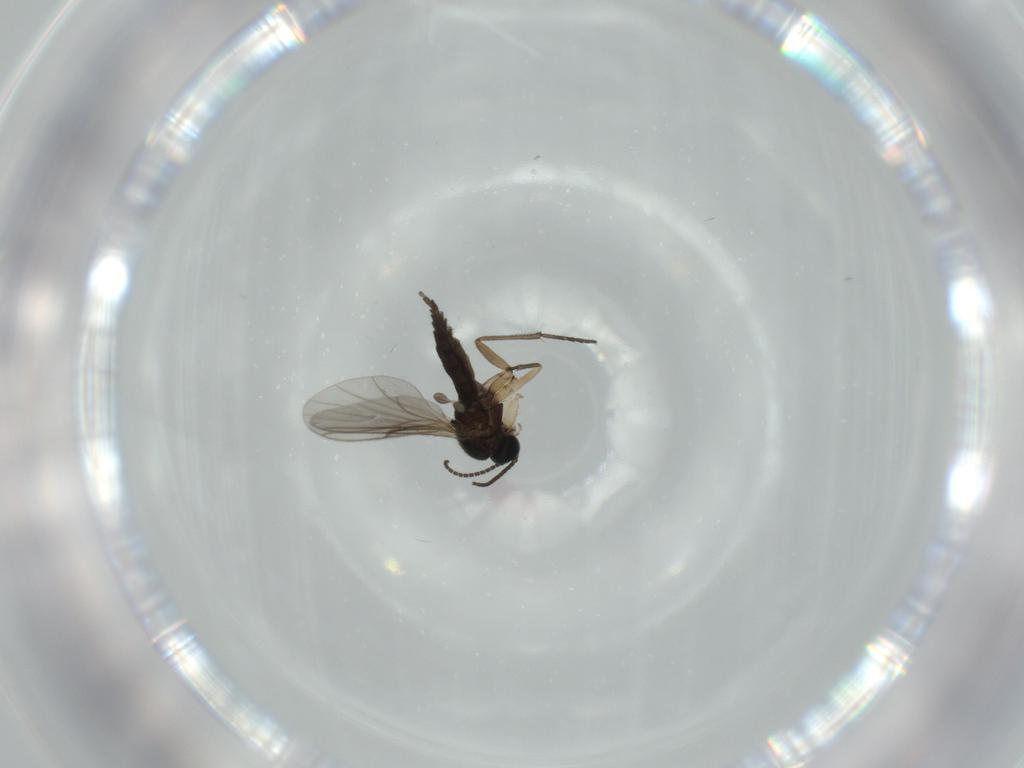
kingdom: Animalia
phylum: Arthropoda
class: Insecta
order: Diptera
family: Sciaridae
